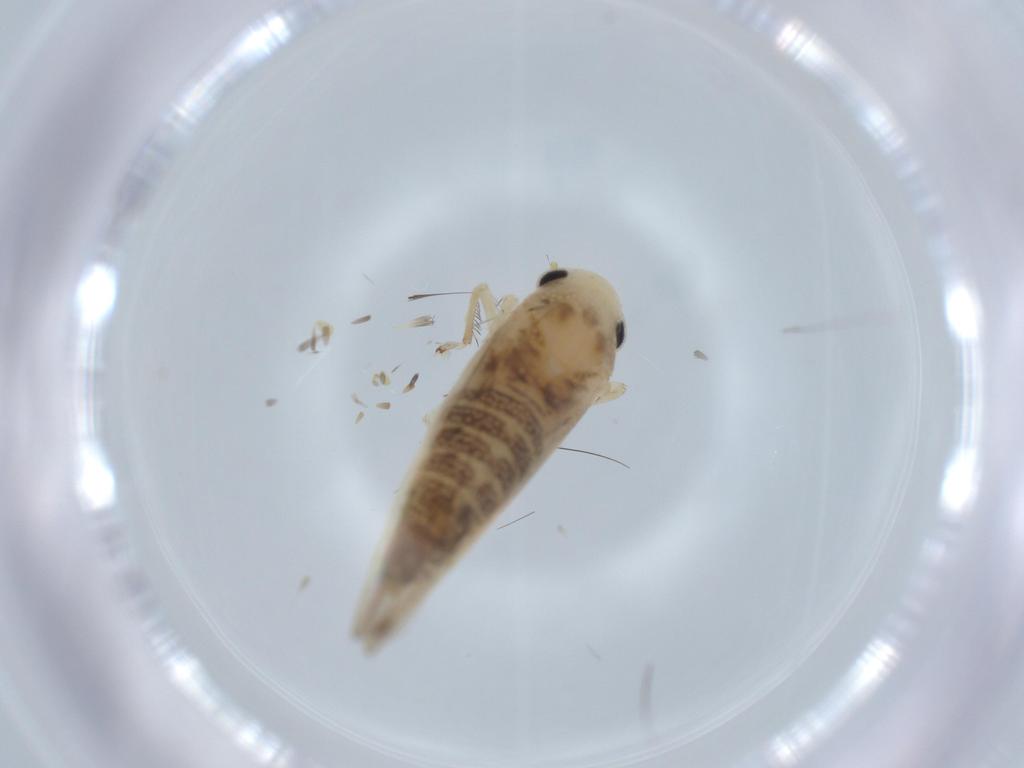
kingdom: Animalia
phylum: Arthropoda
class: Insecta
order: Hemiptera
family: Cicadellidae
